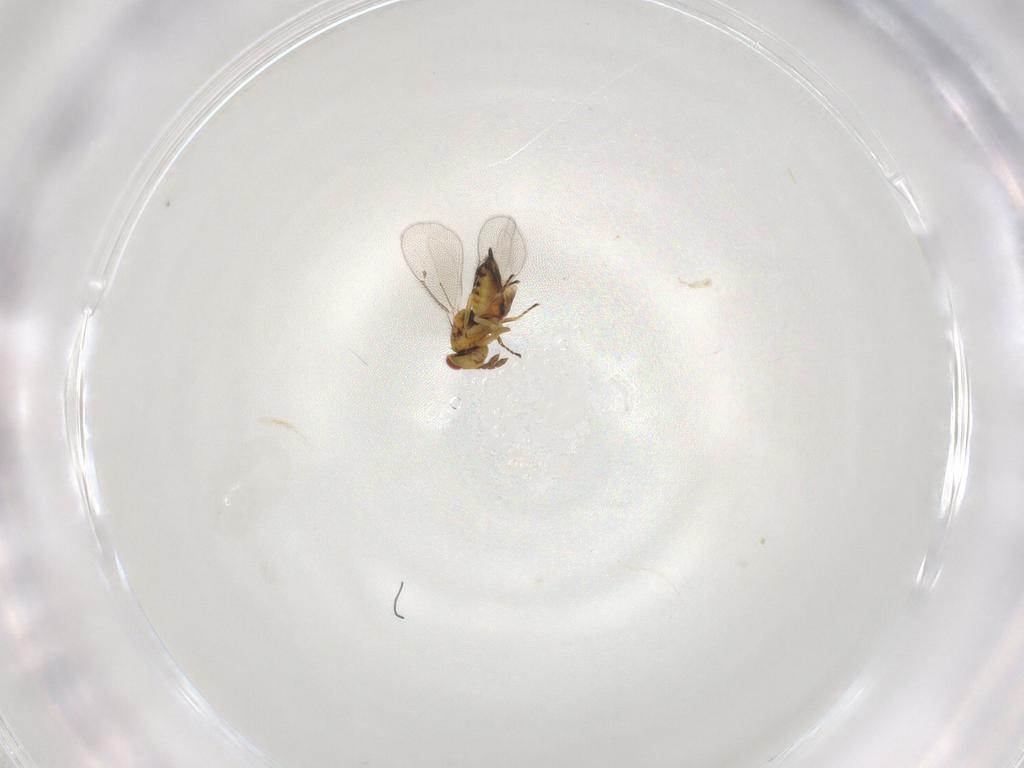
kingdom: Animalia
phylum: Arthropoda
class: Insecta
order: Hymenoptera
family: Eulophidae
